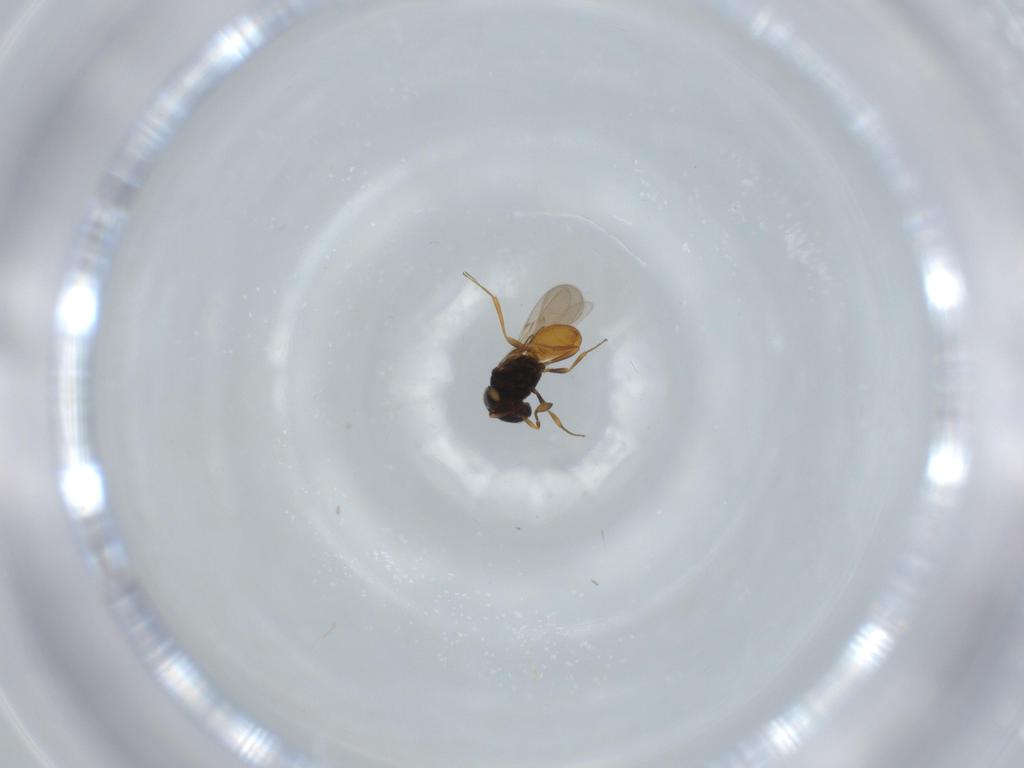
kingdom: Animalia
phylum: Arthropoda
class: Insecta
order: Hymenoptera
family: Scelionidae
